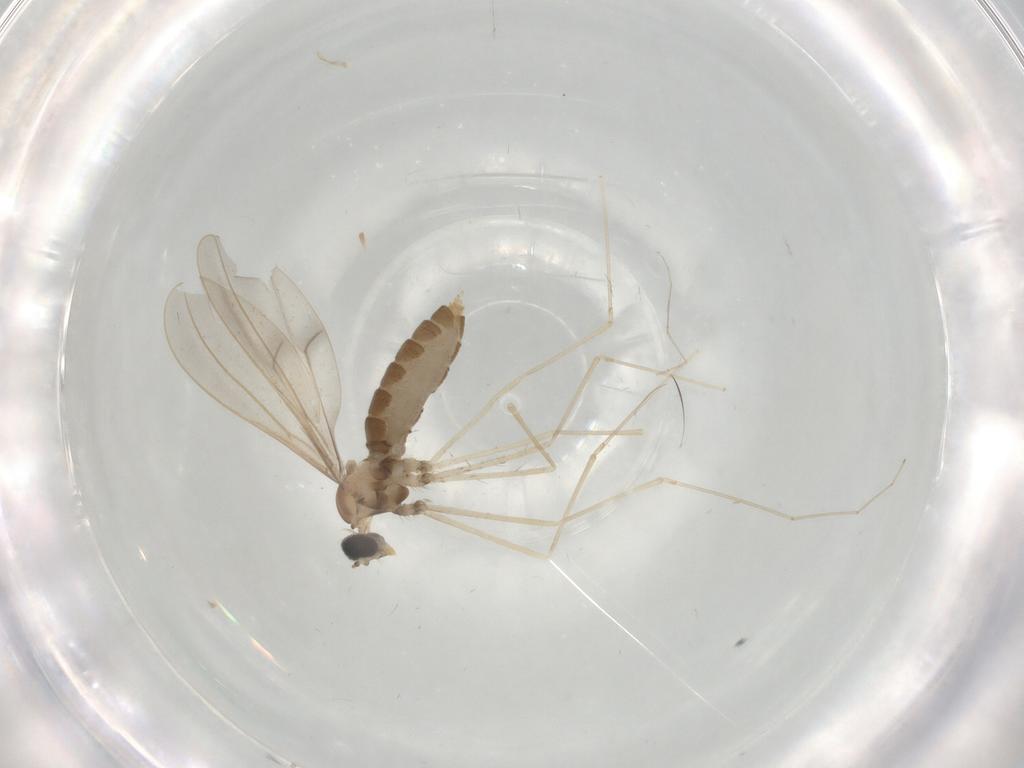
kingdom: Animalia
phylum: Arthropoda
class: Insecta
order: Diptera
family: Cecidomyiidae
